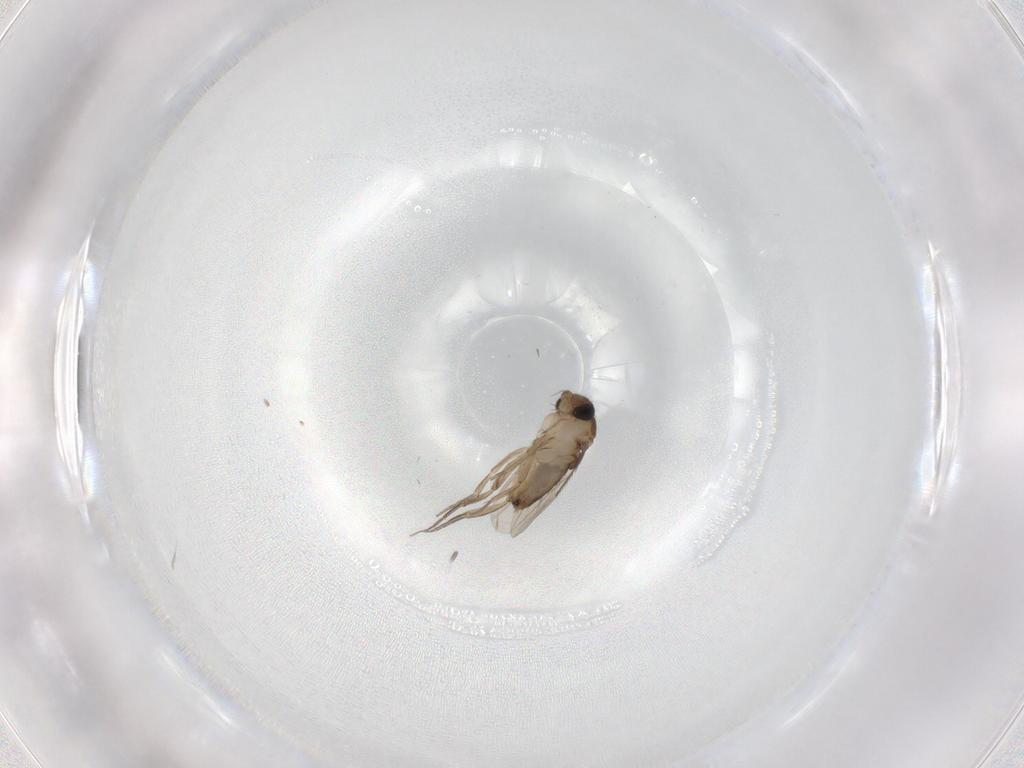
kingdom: Animalia
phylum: Arthropoda
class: Insecta
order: Diptera
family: Phoridae
